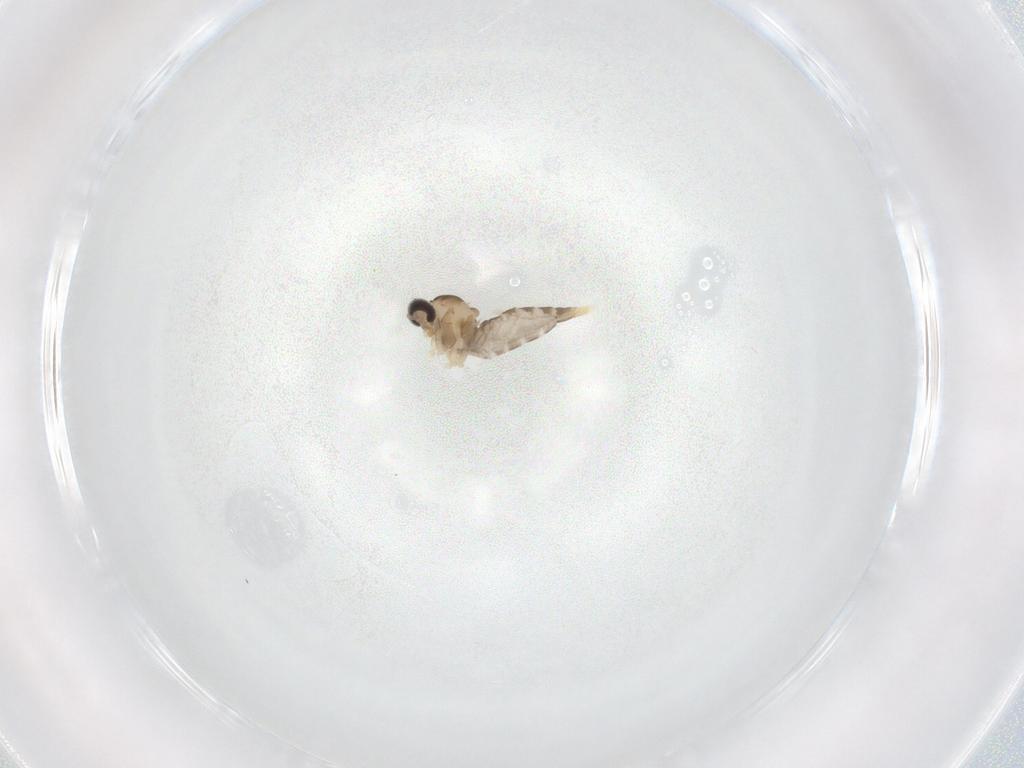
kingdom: Animalia
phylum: Arthropoda
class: Insecta
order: Diptera
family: Cecidomyiidae
